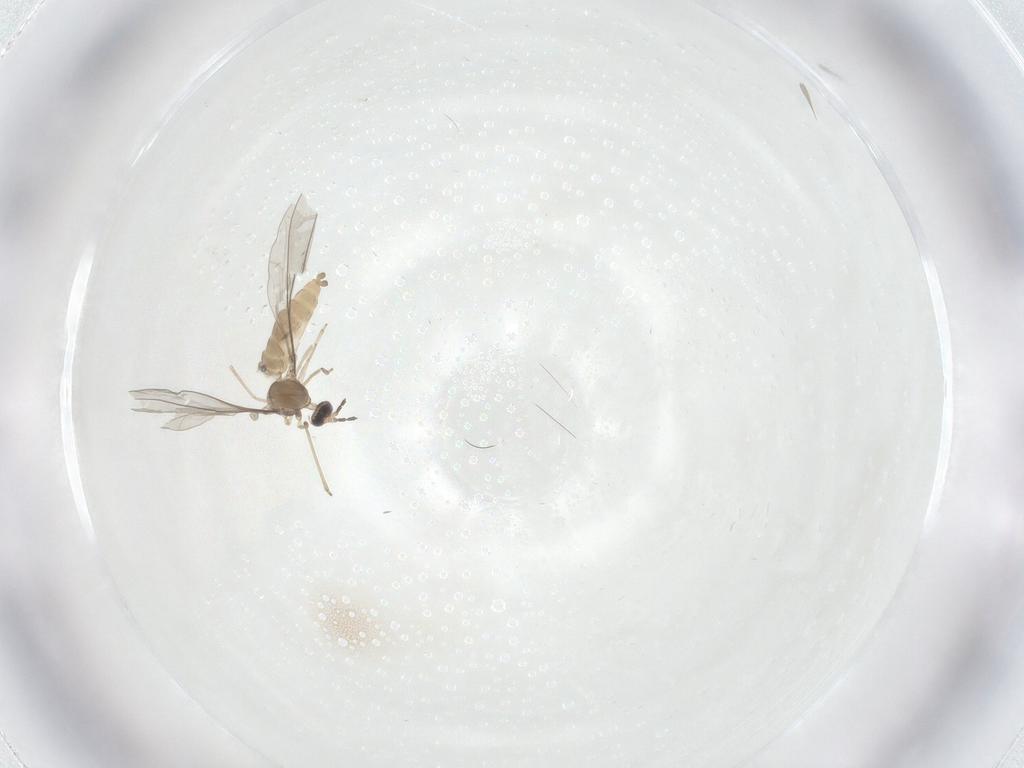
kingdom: Animalia
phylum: Arthropoda
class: Insecta
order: Diptera
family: Cecidomyiidae
